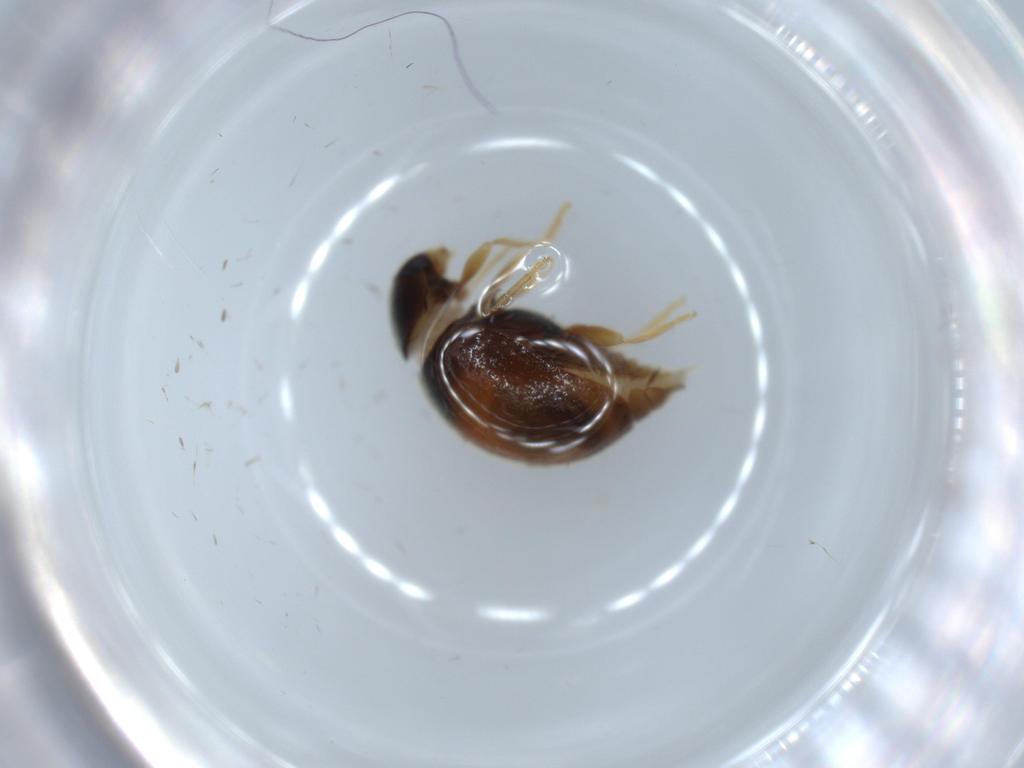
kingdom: Animalia
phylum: Arthropoda
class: Insecta
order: Coleoptera
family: Coccinellidae
